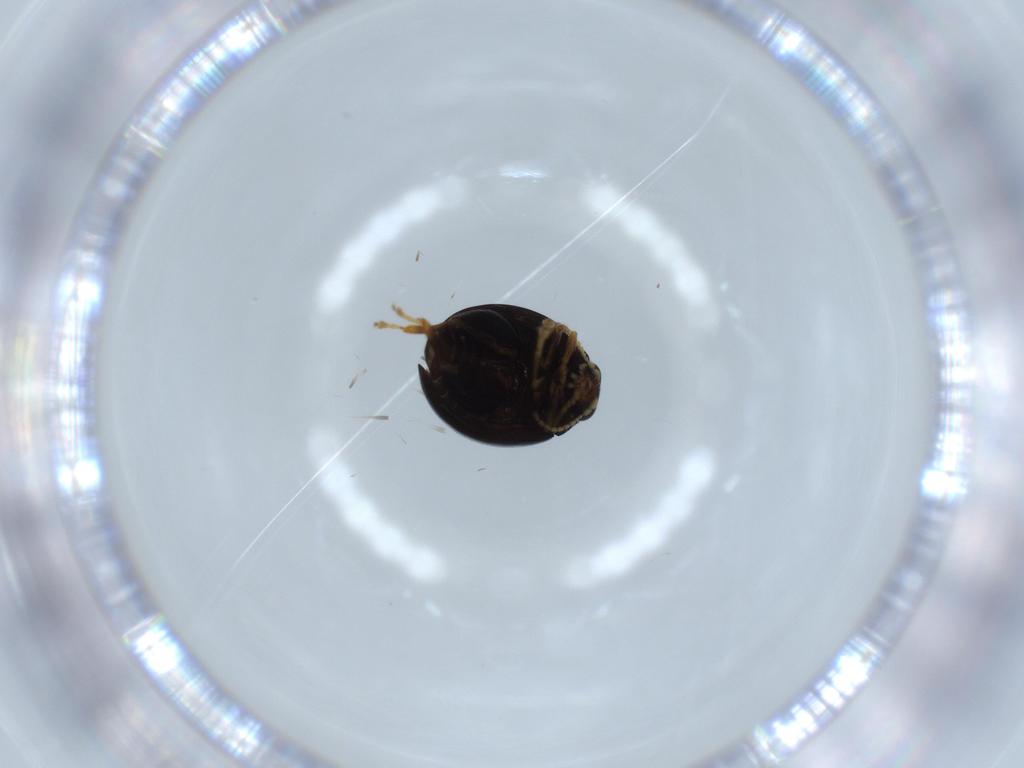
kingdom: Animalia
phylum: Arthropoda
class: Insecta
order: Coleoptera
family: Chrysomelidae
